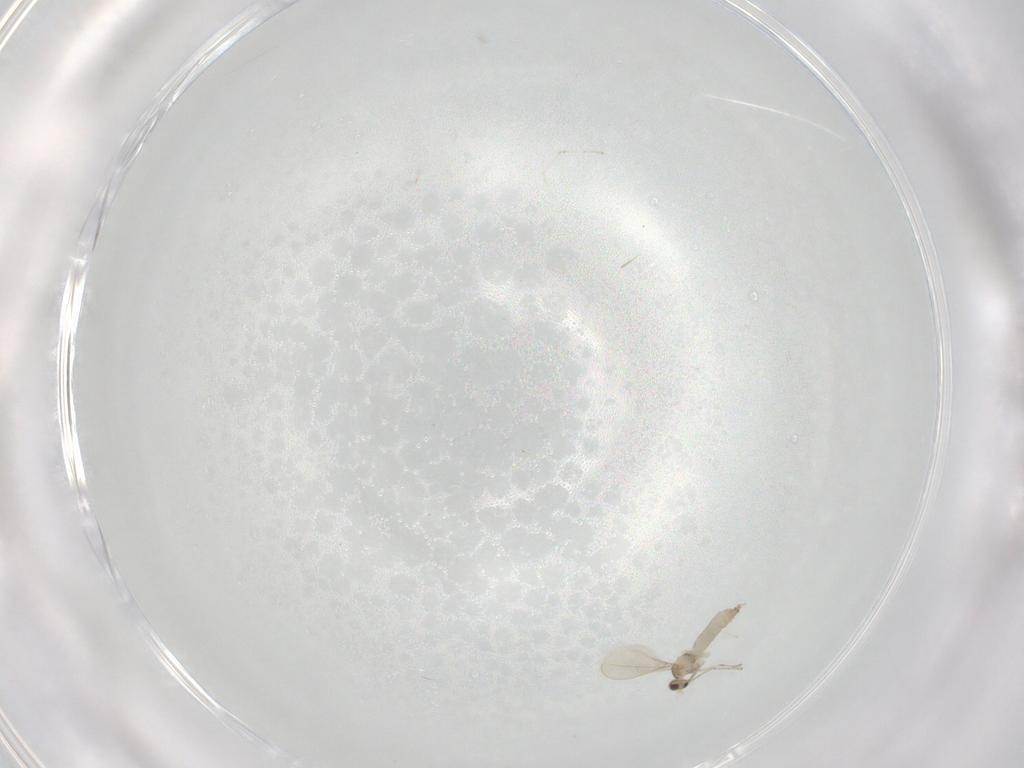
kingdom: Animalia
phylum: Arthropoda
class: Insecta
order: Diptera
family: Cecidomyiidae
